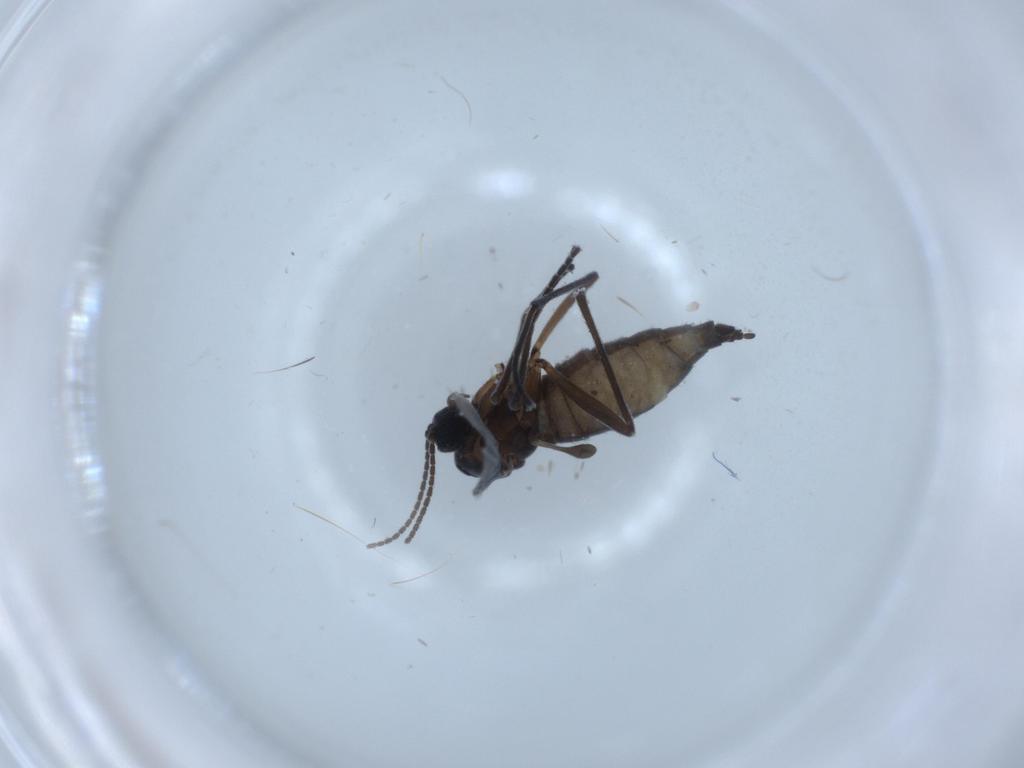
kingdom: Animalia
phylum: Arthropoda
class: Insecta
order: Diptera
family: Sciaridae
